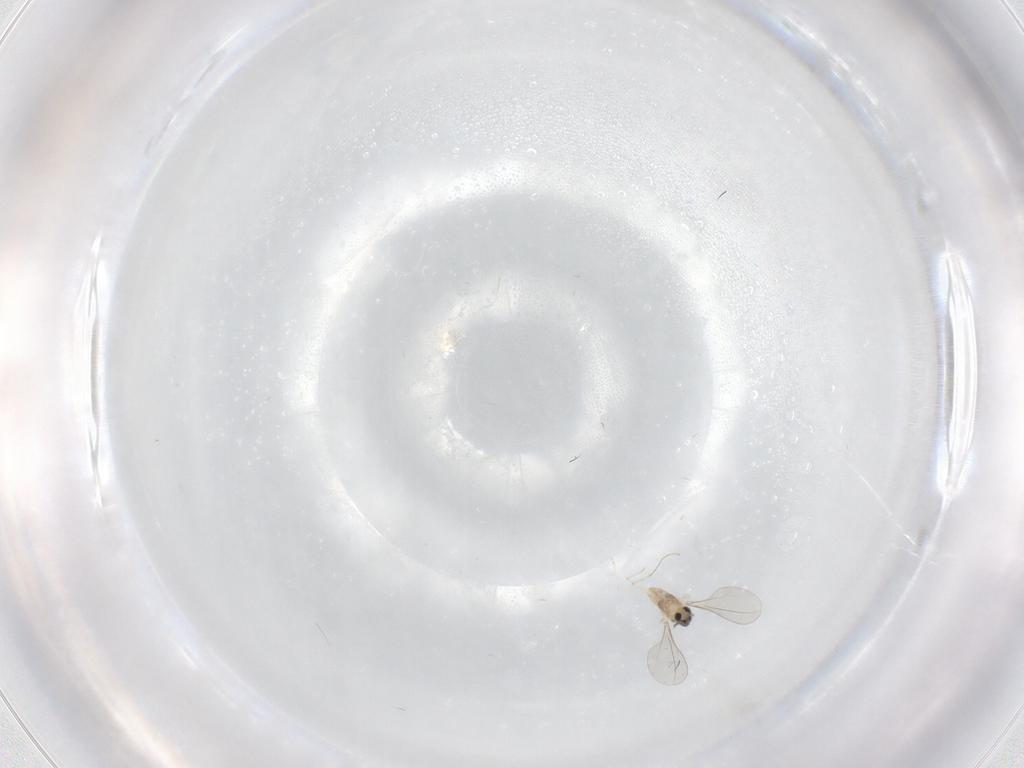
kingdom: Animalia
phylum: Arthropoda
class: Insecta
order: Diptera
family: Cecidomyiidae
